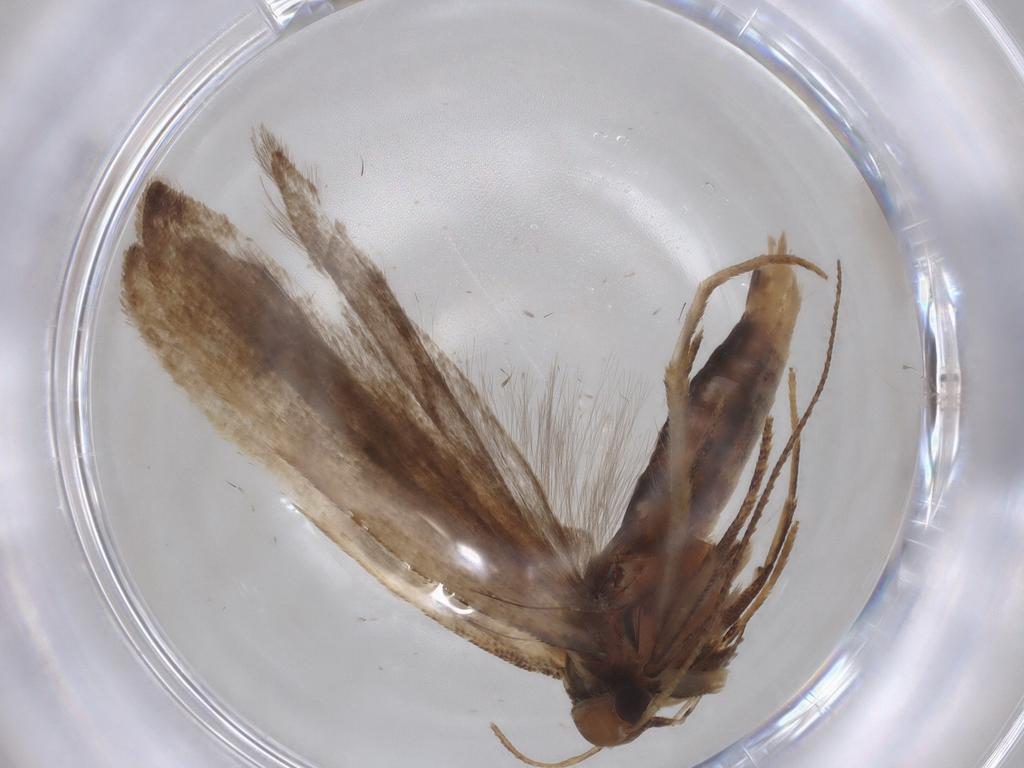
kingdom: Animalia
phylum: Arthropoda
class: Insecta
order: Lepidoptera
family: Gelechiidae
